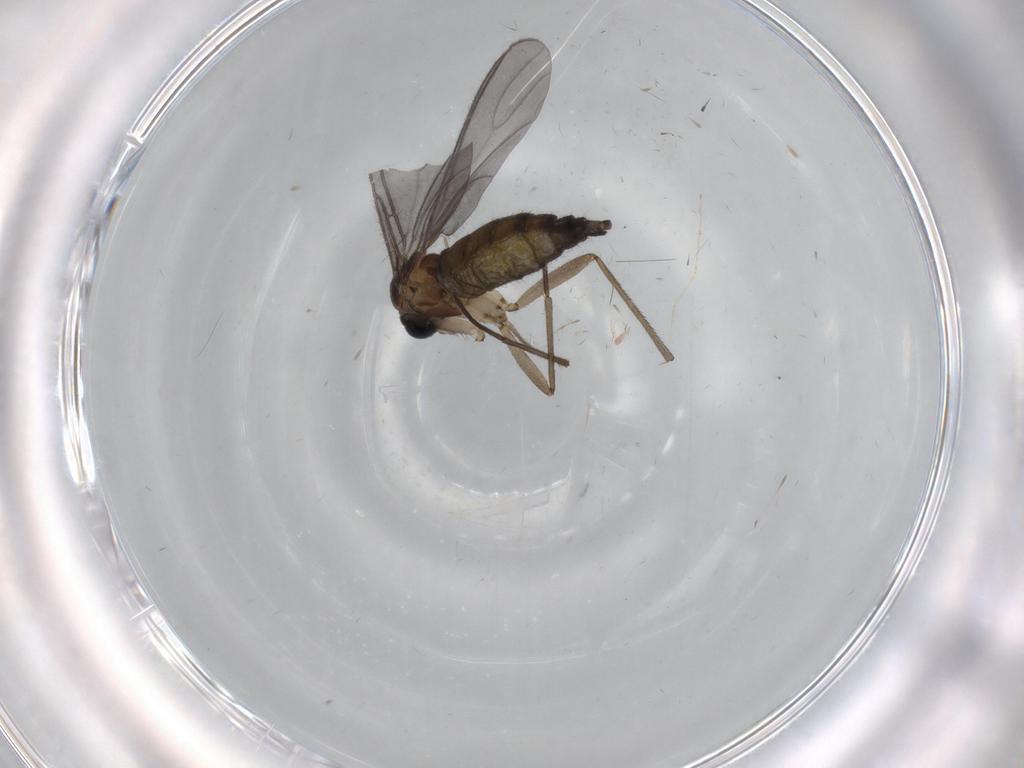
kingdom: Animalia
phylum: Arthropoda
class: Insecta
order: Diptera
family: Sciaridae
